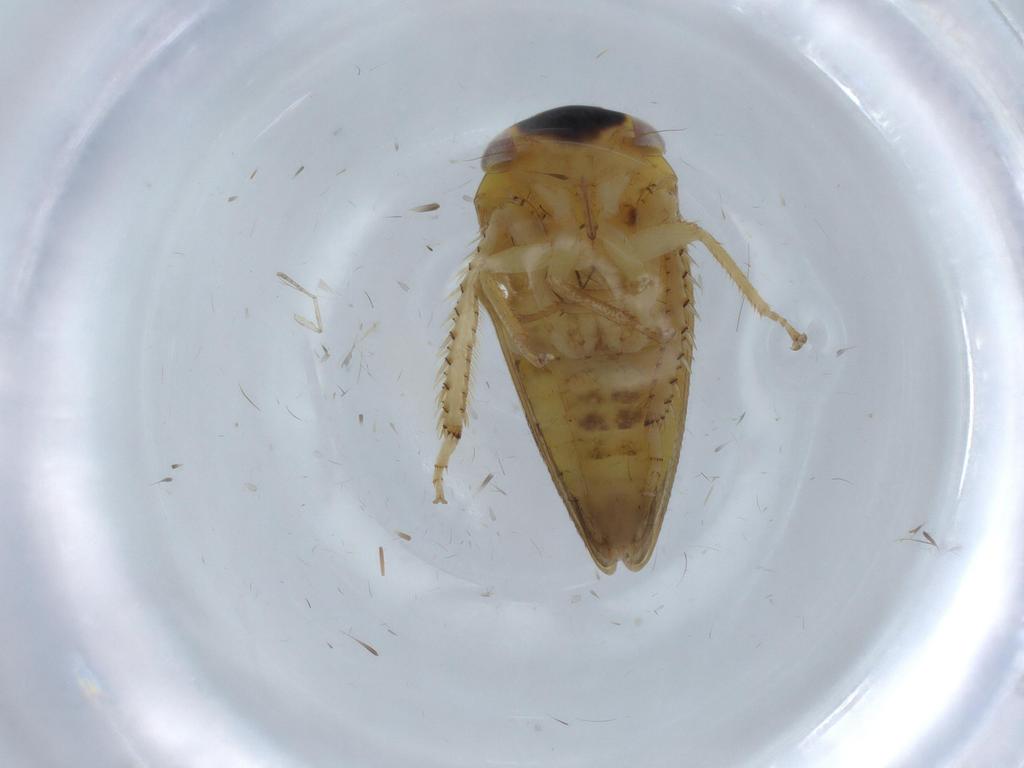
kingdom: Animalia
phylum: Arthropoda
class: Insecta
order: Hemiptera
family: Cicadellidae
